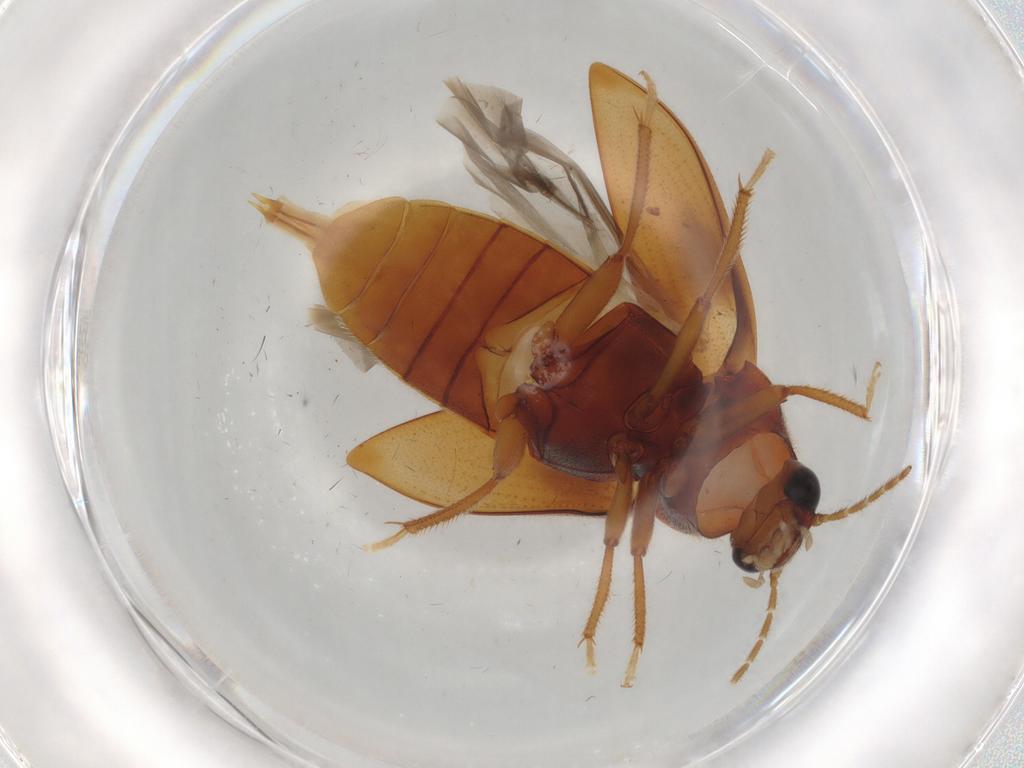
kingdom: Animalia
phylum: Arthropoda
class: Insecta
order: Coleoptera
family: Ptilodactylidae
